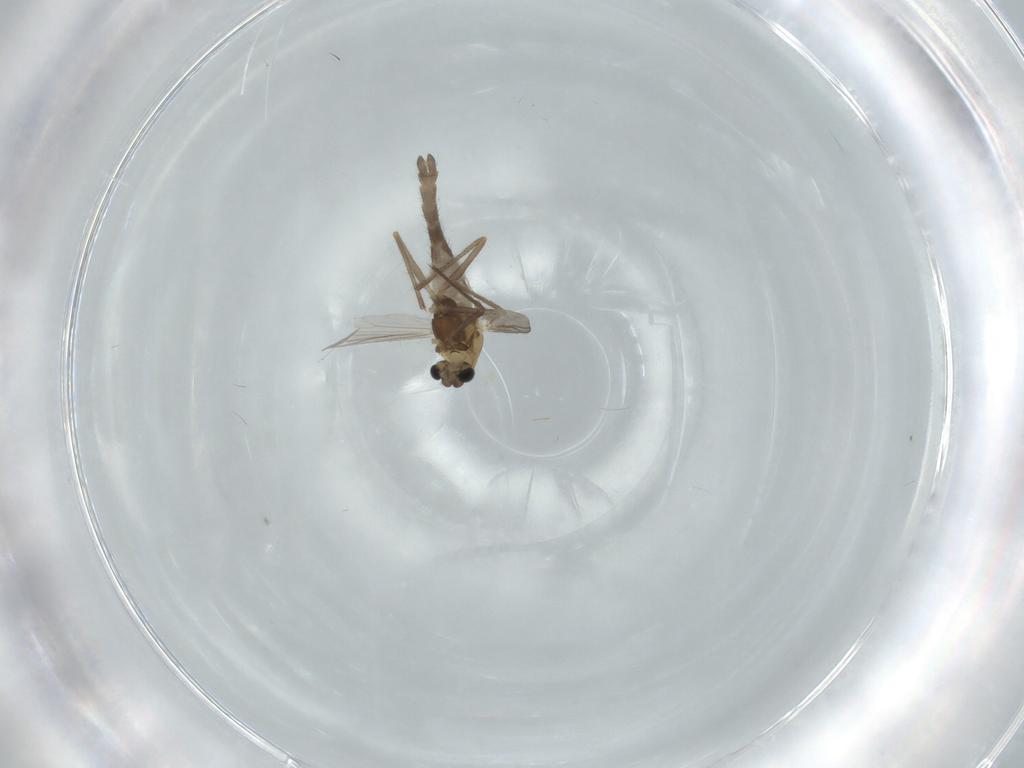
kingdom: Animalia
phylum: Arthropoda
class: Insecta
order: Diptera
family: Chironomidae
